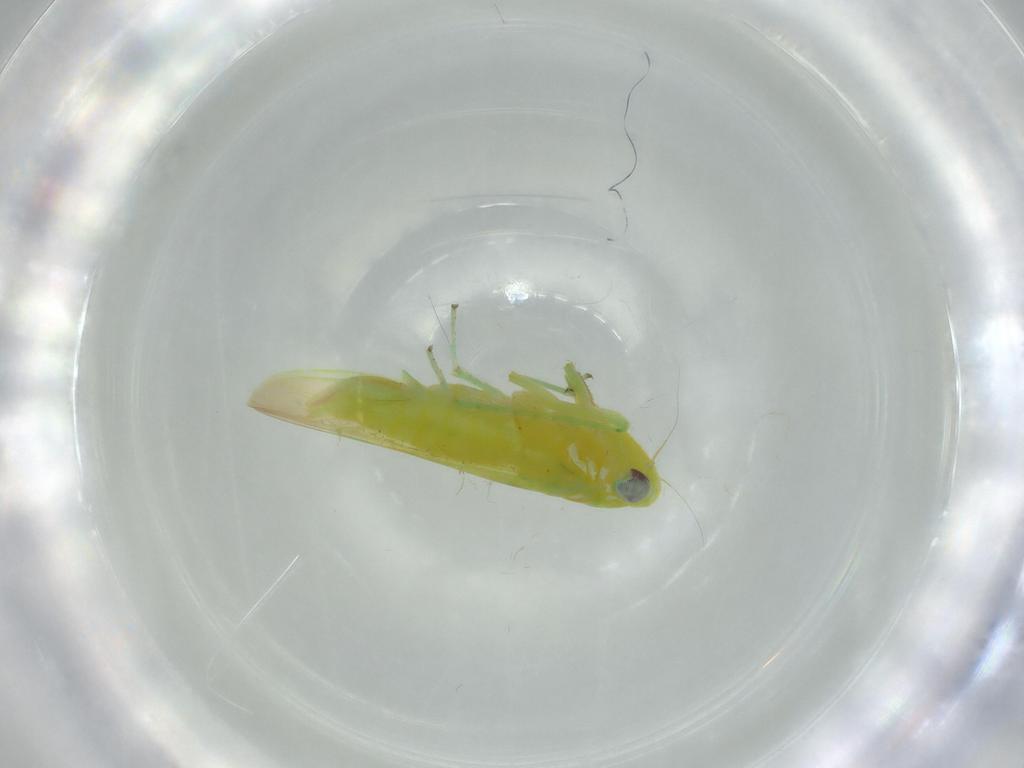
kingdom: Animalia
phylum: Arthropoda
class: Insecta
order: Hemiptera
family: Cicadellidae
